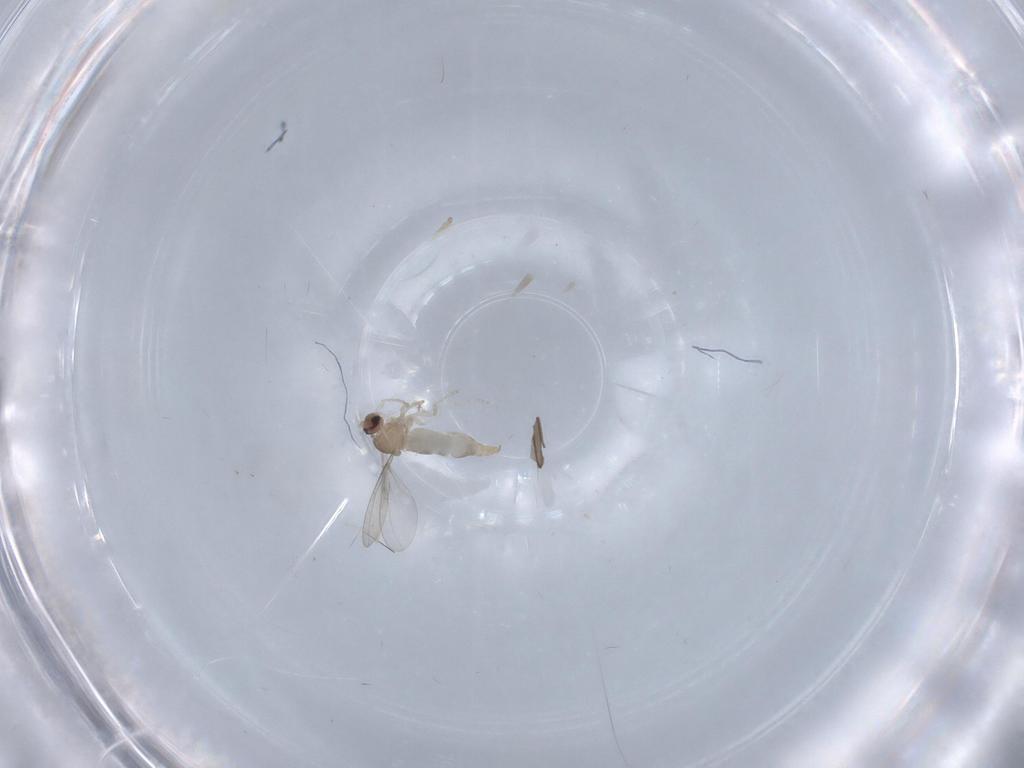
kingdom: Animalia
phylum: Arthropoda
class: Insecta
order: Diptera
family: Cecidomyiidae
